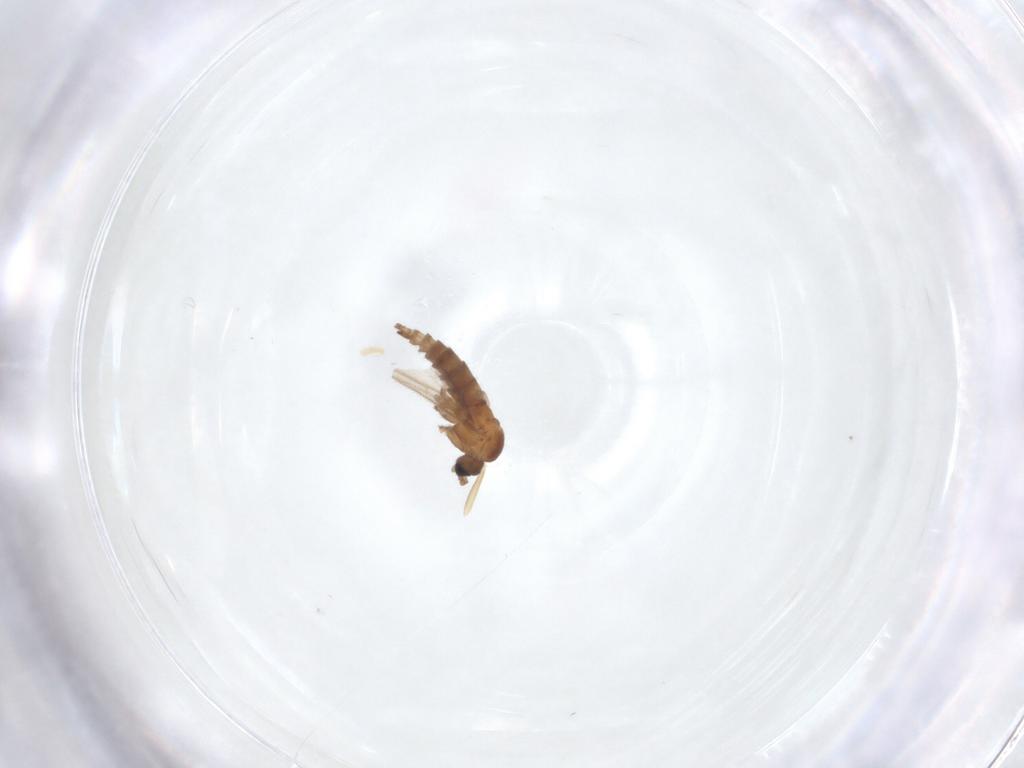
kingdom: Animalia
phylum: Arthropoda
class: Insecta
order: Diptera
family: Chironomidae
